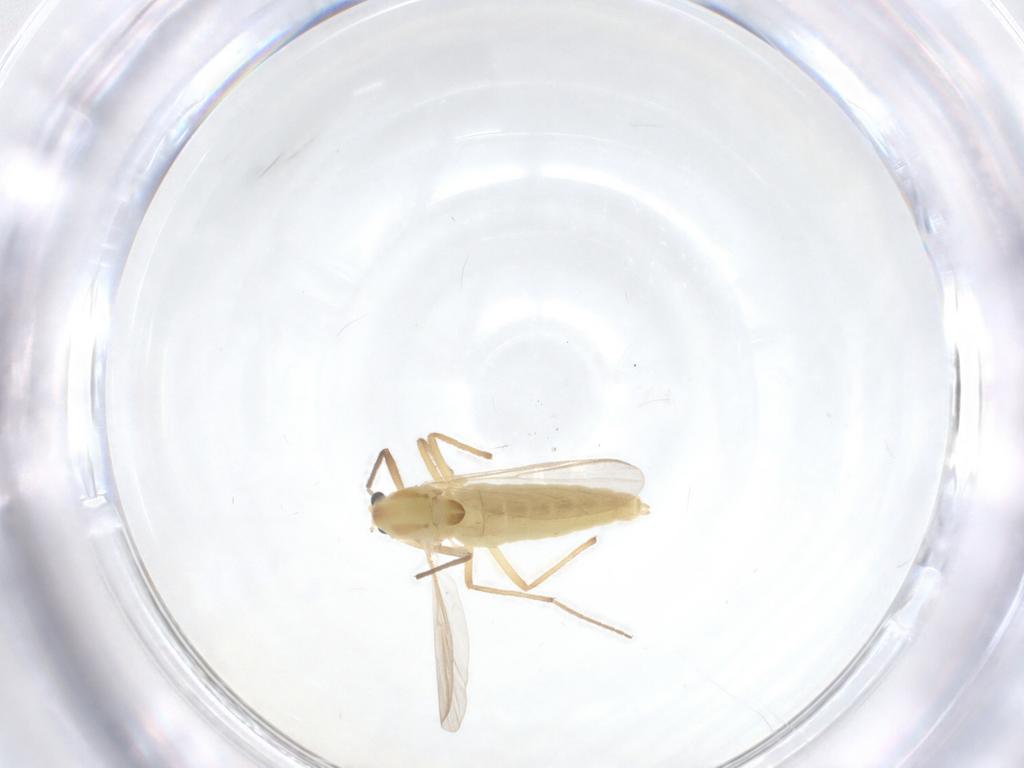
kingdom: Animalia
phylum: Arthropoda
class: Insecta
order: Diptera
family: Chironomidae
